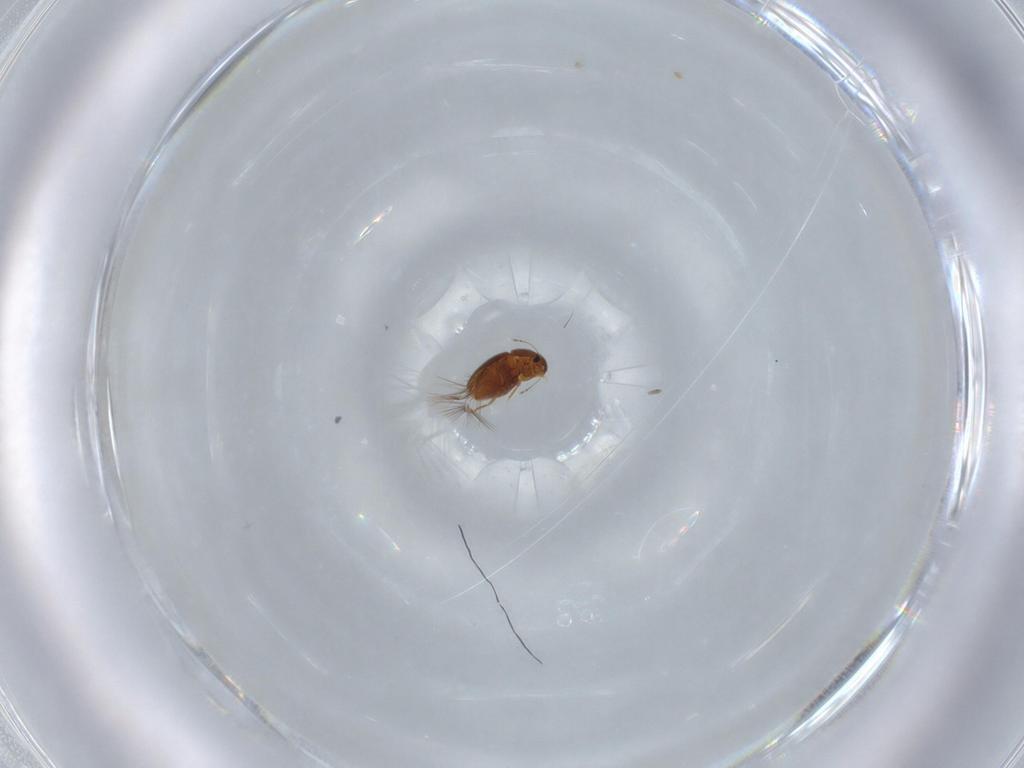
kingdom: Animalia
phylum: Arthropoda
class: Insecta
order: Coleoptera
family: Ptiliidae
